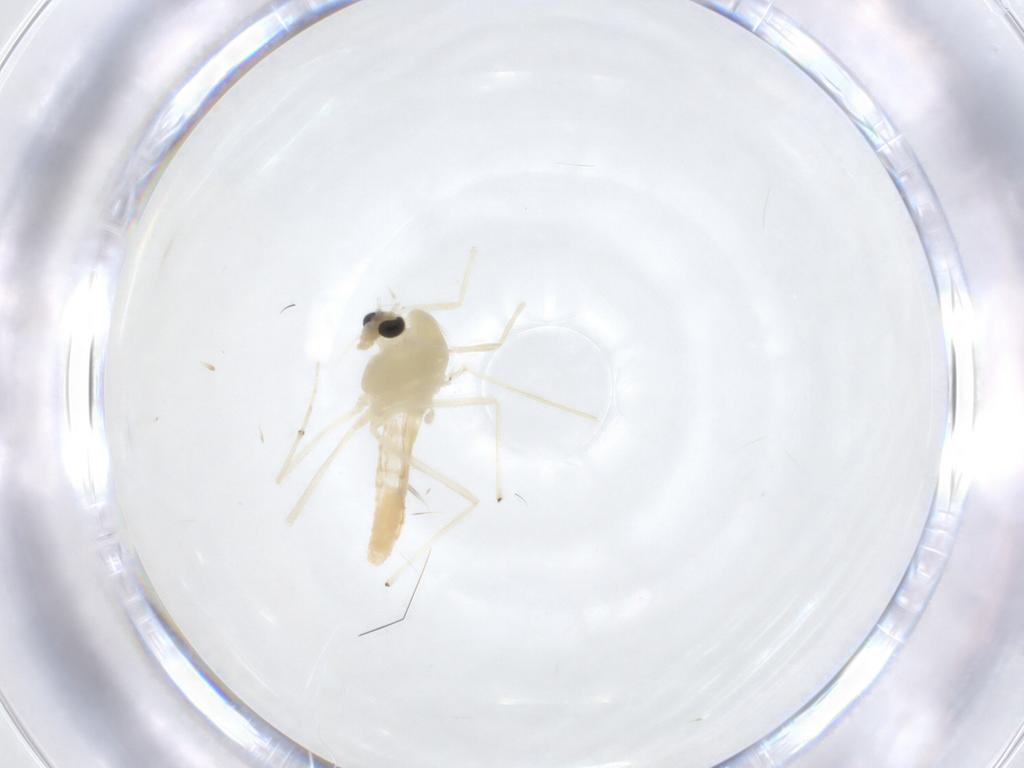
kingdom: Animalia
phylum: Arthropoda
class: Insecta
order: Diptera
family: Chironomidae
